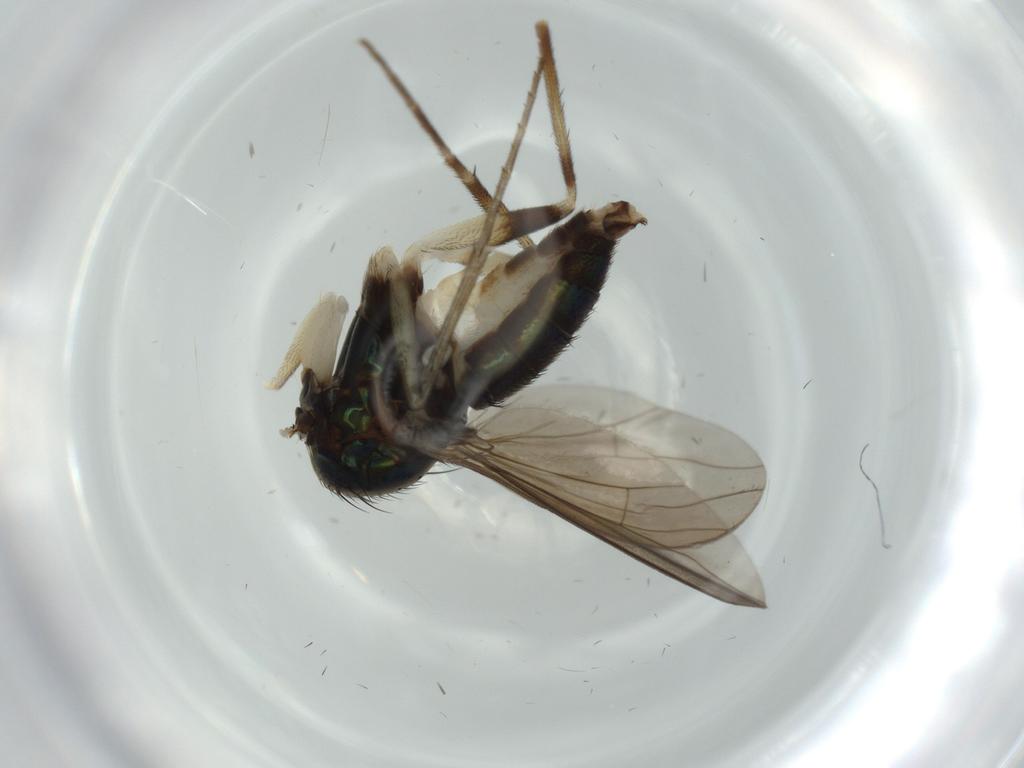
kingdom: Animalia
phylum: Arthropoda
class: Insecta
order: Diptera
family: Dolichopodidae
